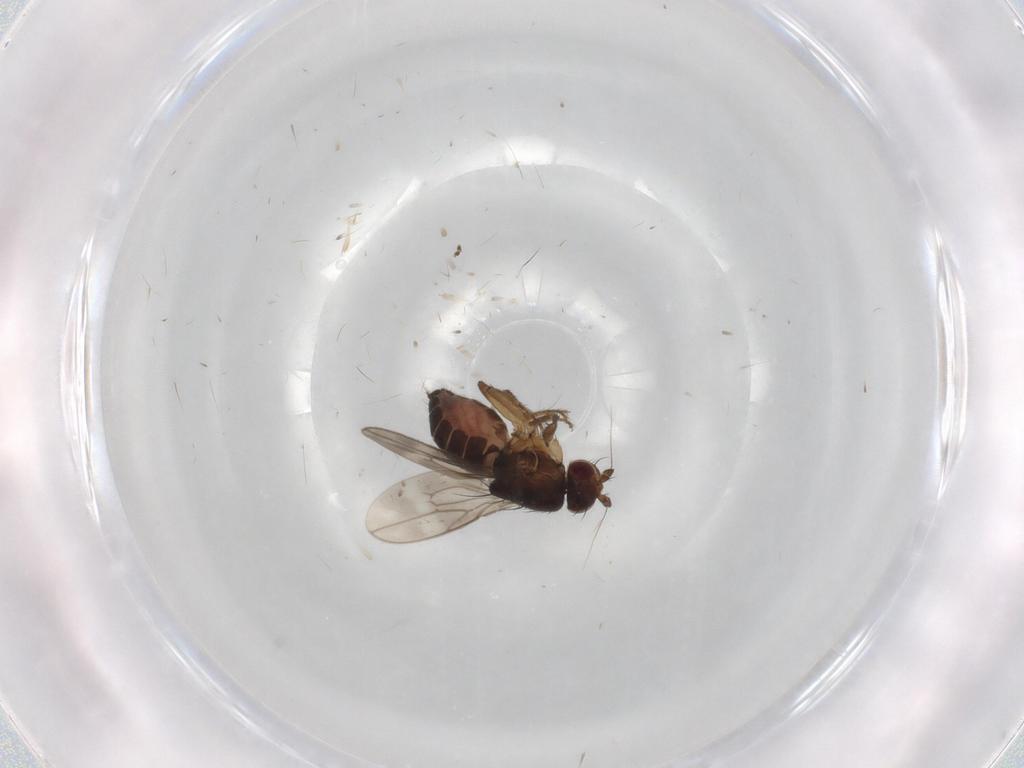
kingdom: Animalia
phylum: Arthropoda
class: Insecta
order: Diptera
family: Sphaeroceridae
